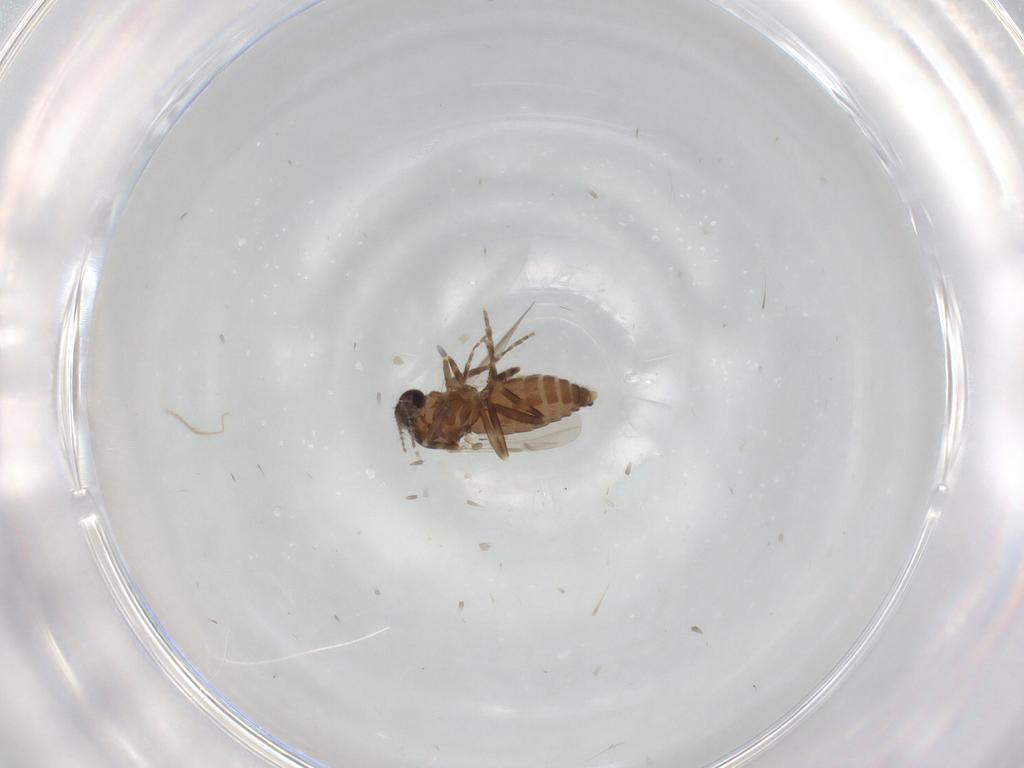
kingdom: Animalia
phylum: Arthropoda
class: Insecta
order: Diptera
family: Ceratopogonidae
